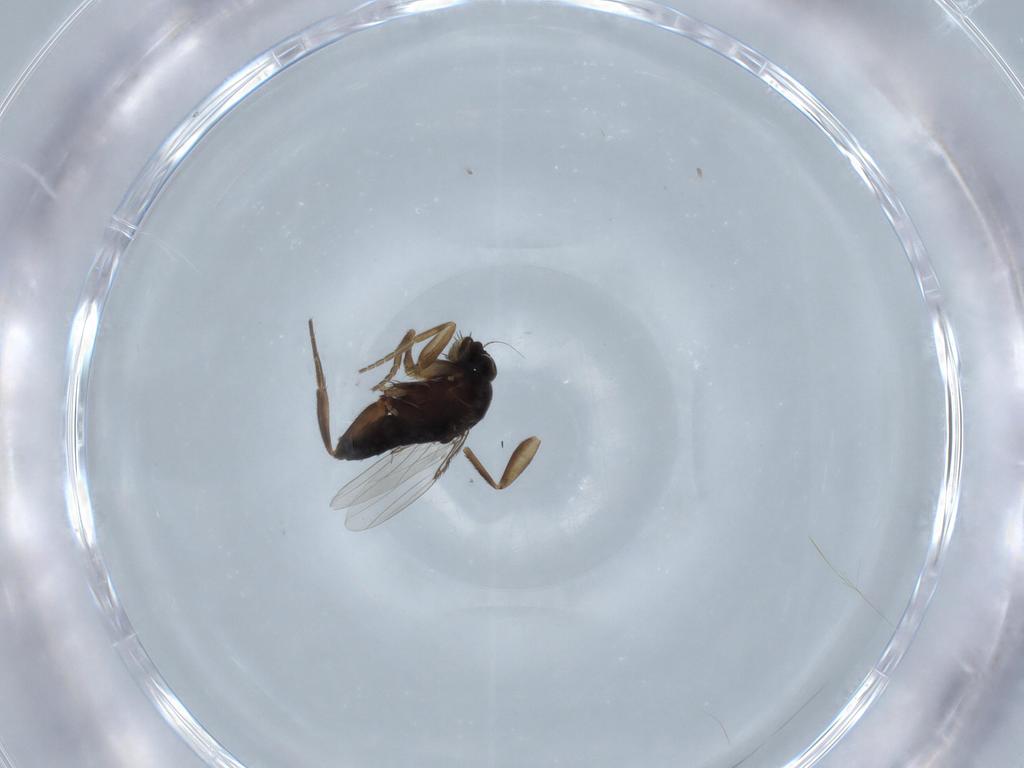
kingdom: Animalia
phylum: Arthropoda
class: Insecta
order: Diptera
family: Phoridae
